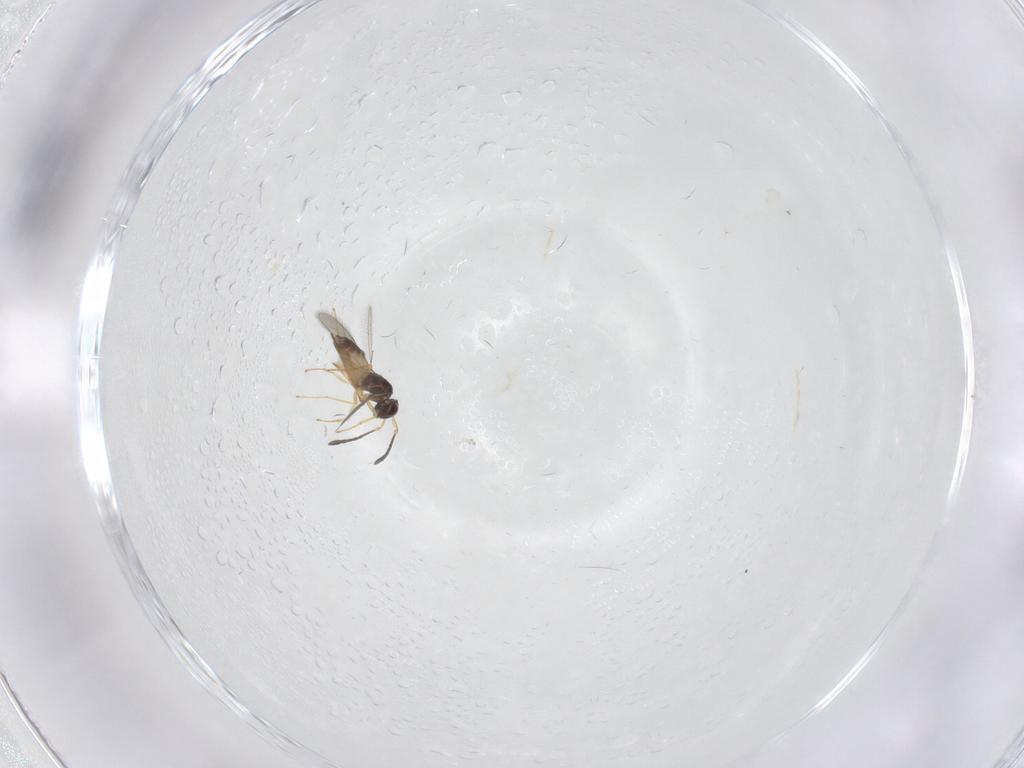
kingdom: Animalia
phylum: Arthropoda
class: Insecta
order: Hymenoptera
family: Mymaridae
